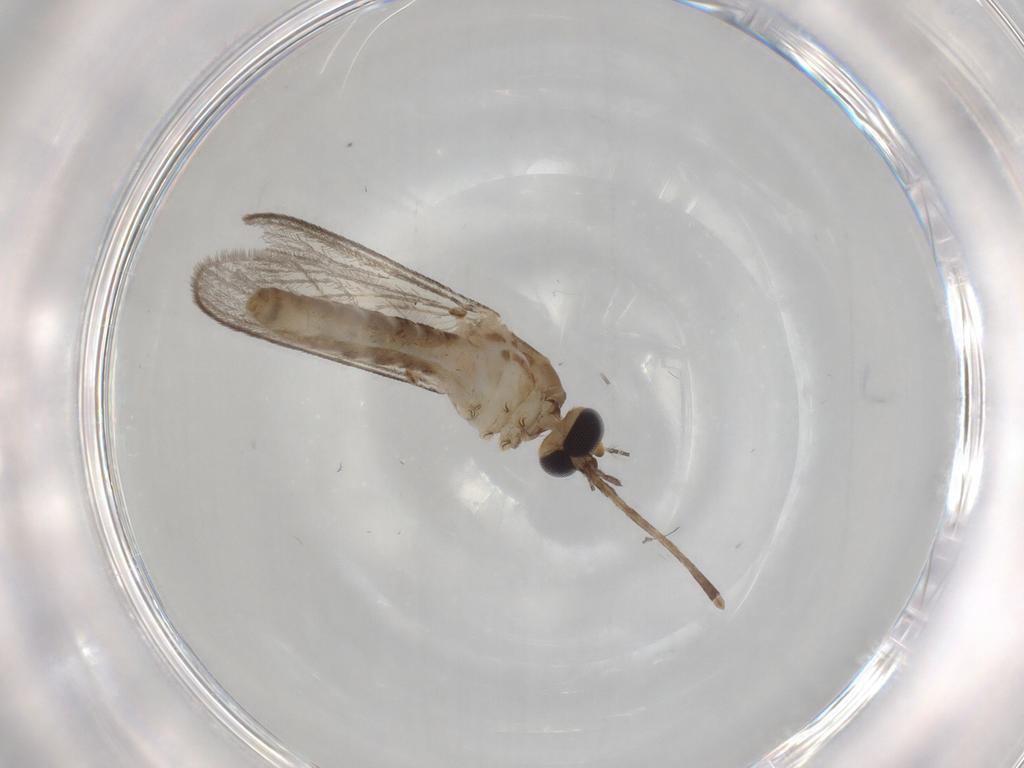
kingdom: Animalia
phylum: Arthropoda
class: Insecta
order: Diptera
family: Culicidae
